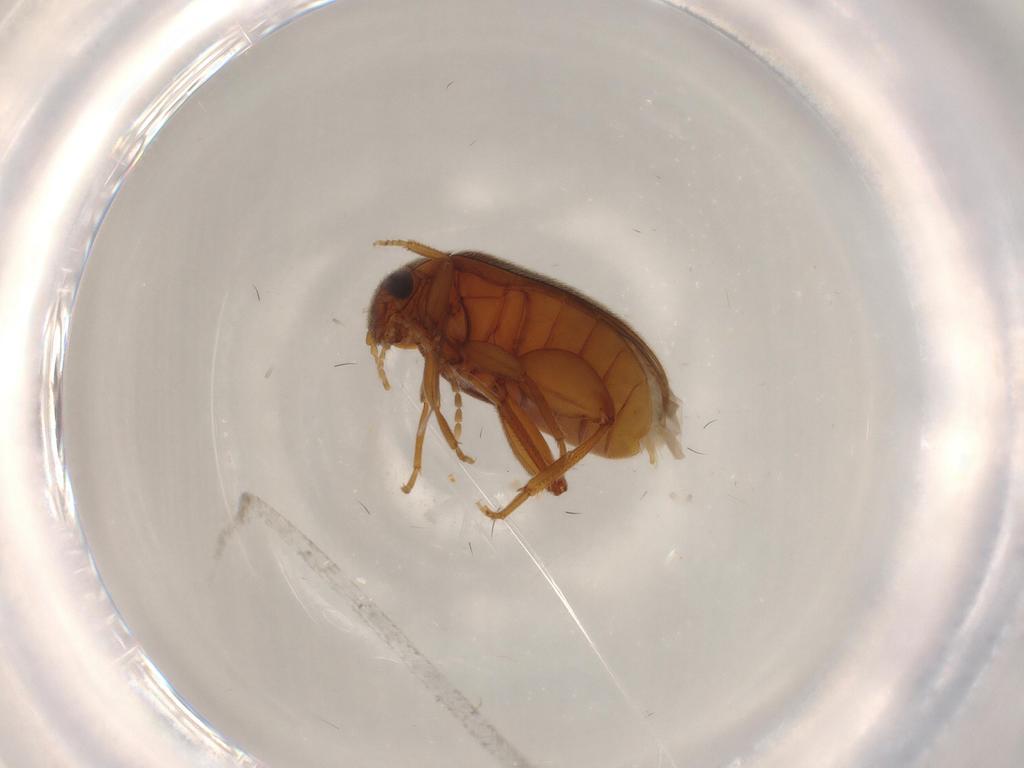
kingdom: Animalia
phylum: Arthropoda
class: Insecta
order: Coleoptera
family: Scirtidae
